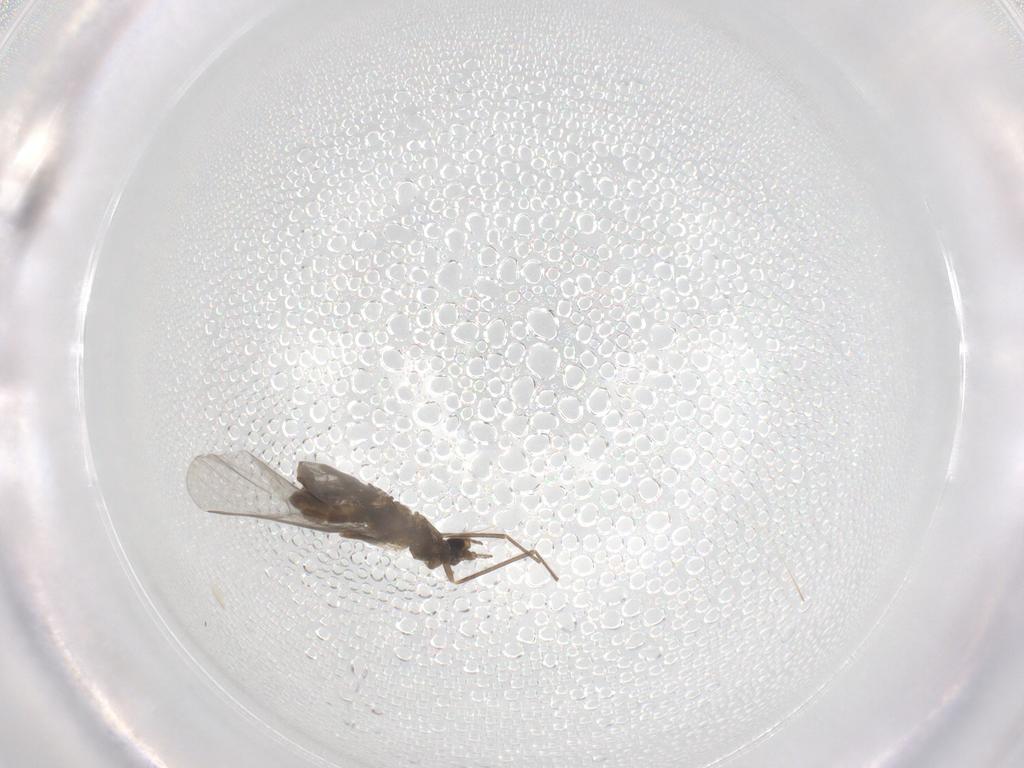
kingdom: Animalia
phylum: Arthropoda
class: Insecta
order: Diptera
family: Cecidomyiidae
